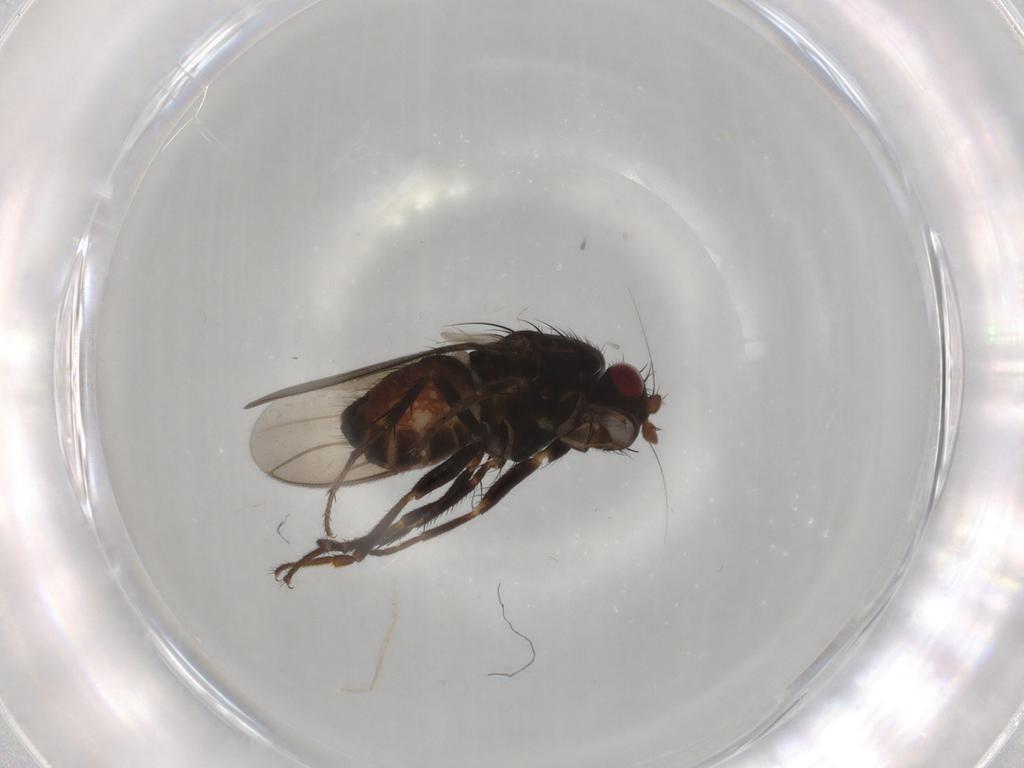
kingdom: Animalia
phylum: Arthropoda
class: Insecta
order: Diptera
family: Sphaeroceridae
